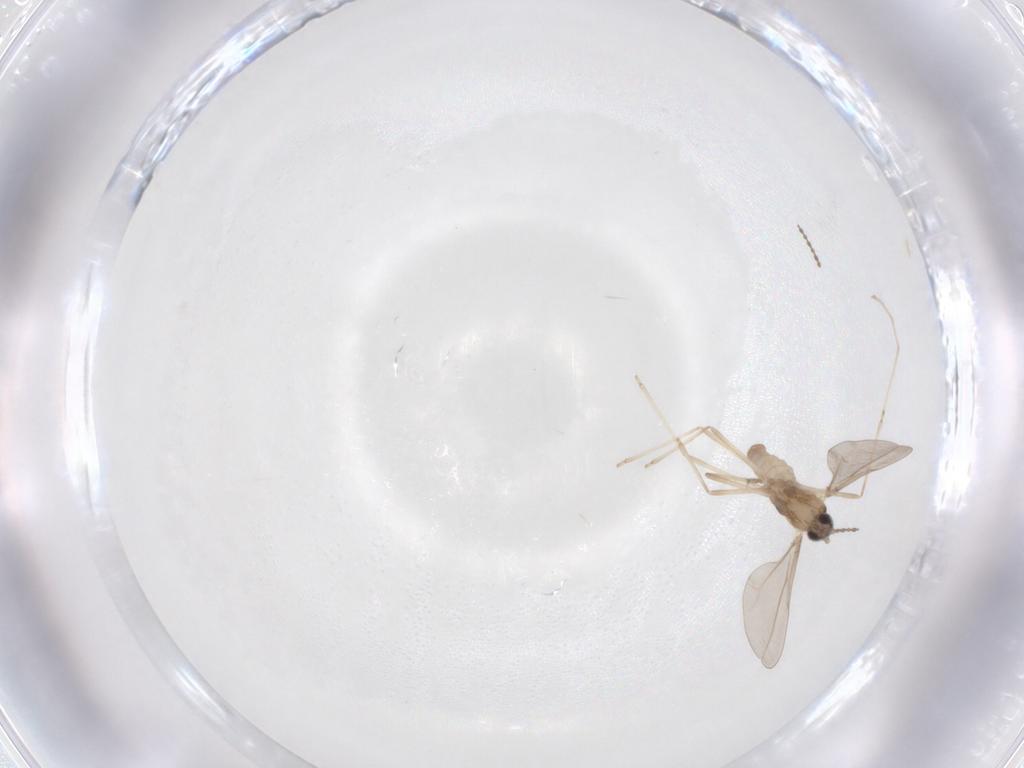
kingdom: Animalia
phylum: Arthropoda
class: Insecta
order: Diptera
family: Cecidomyiidae
